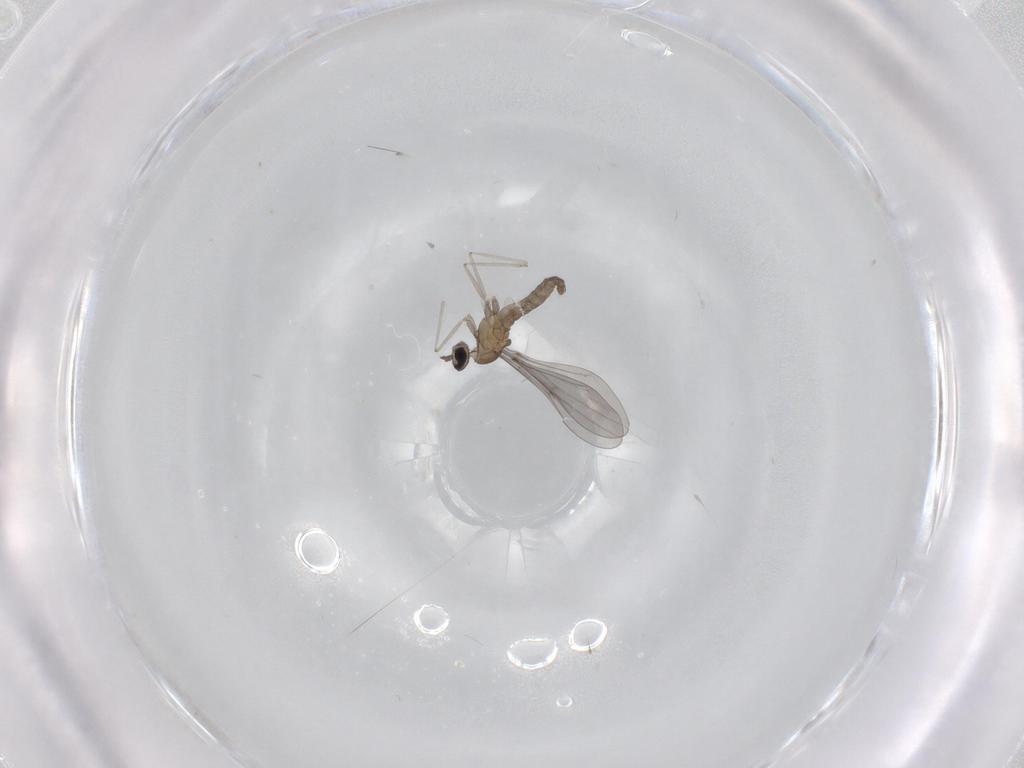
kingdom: Animalia
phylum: Arthropoda
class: Insecta
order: Diptera
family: Cecidomyiidae
